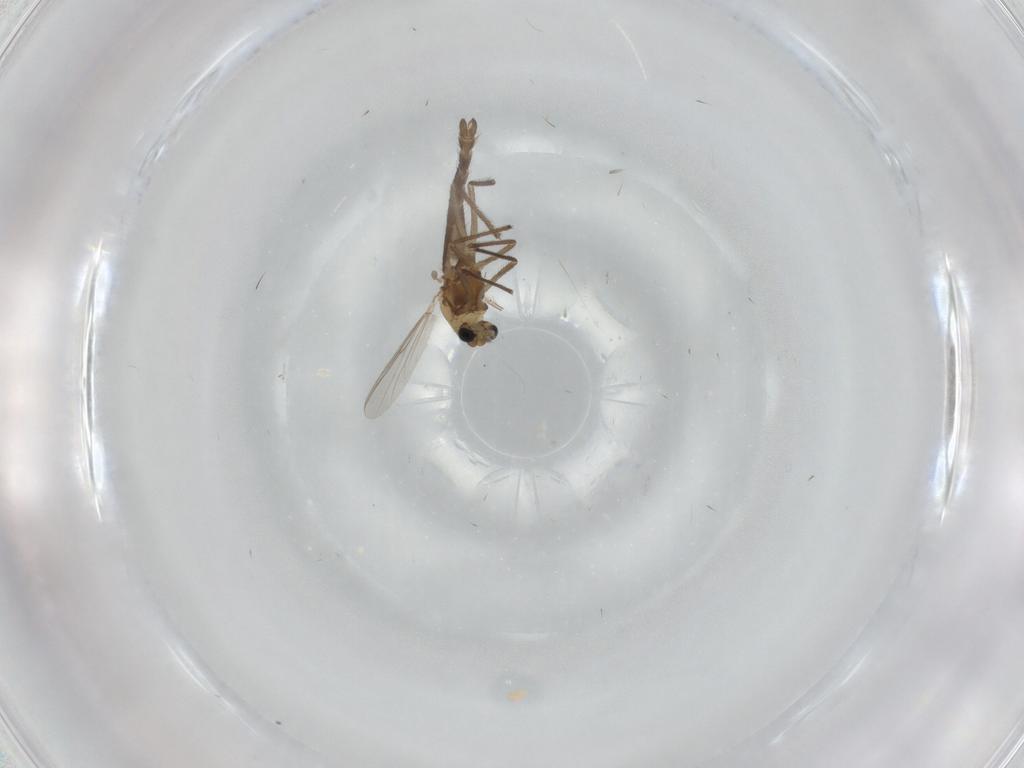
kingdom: Animalia
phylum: Arthropoda
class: Insecta
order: Diptera
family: Chironomidae
